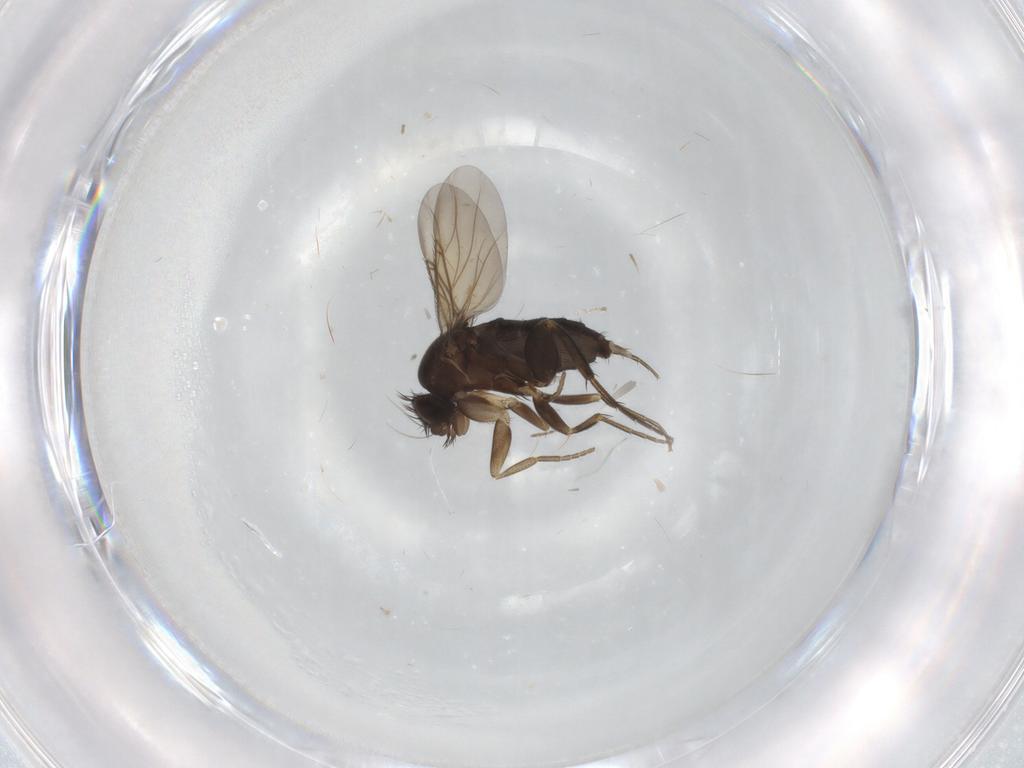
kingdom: Animalia
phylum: Arthropoda
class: Insecta
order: Diptera
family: Phoridae
